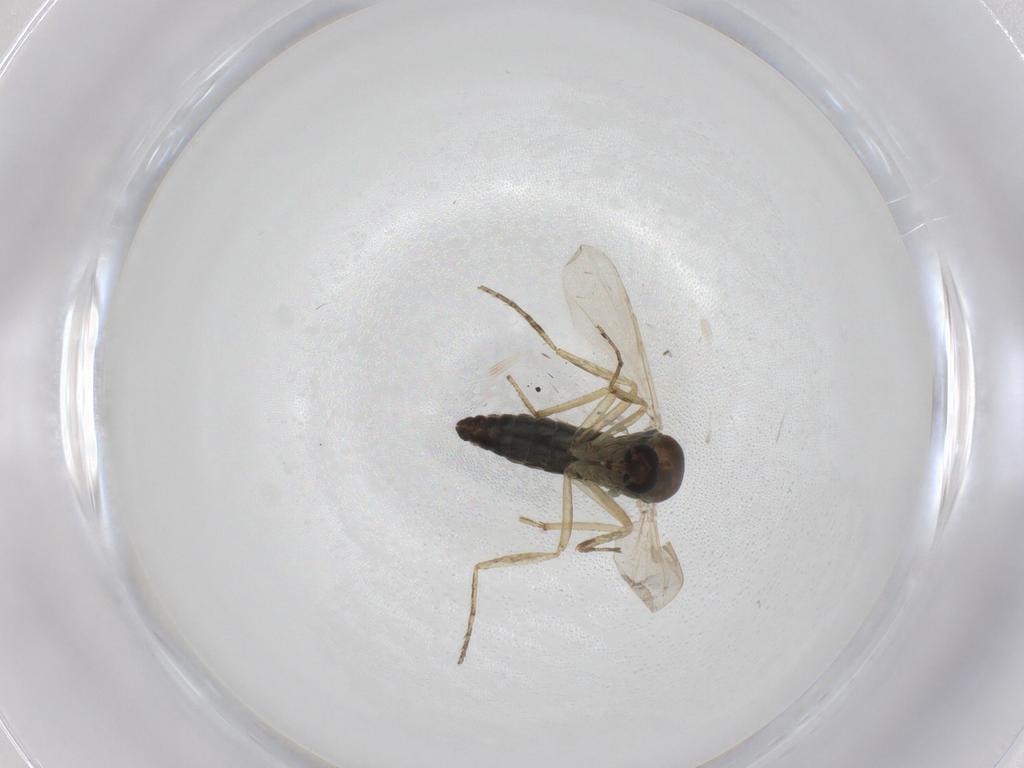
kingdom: Animalia
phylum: Arthropoda
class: Insecta
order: Diptera
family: Ceratopogonidae
